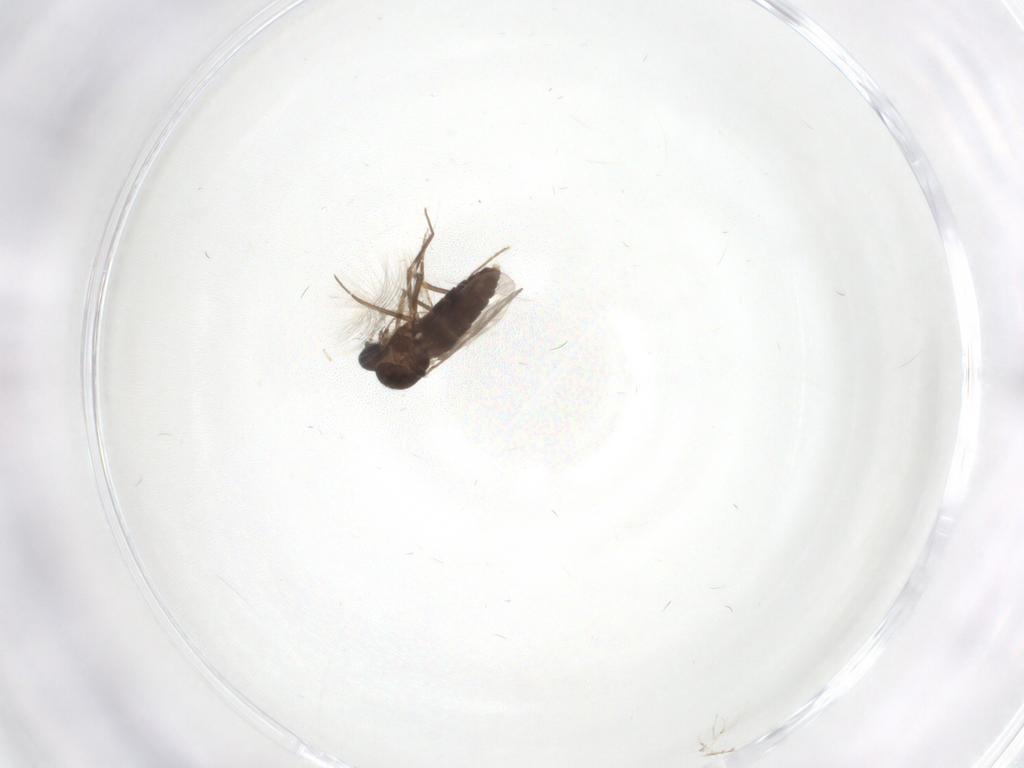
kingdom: Animalia
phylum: Arthropoda
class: Insecta
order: Diptera
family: Ceratopogonidae
